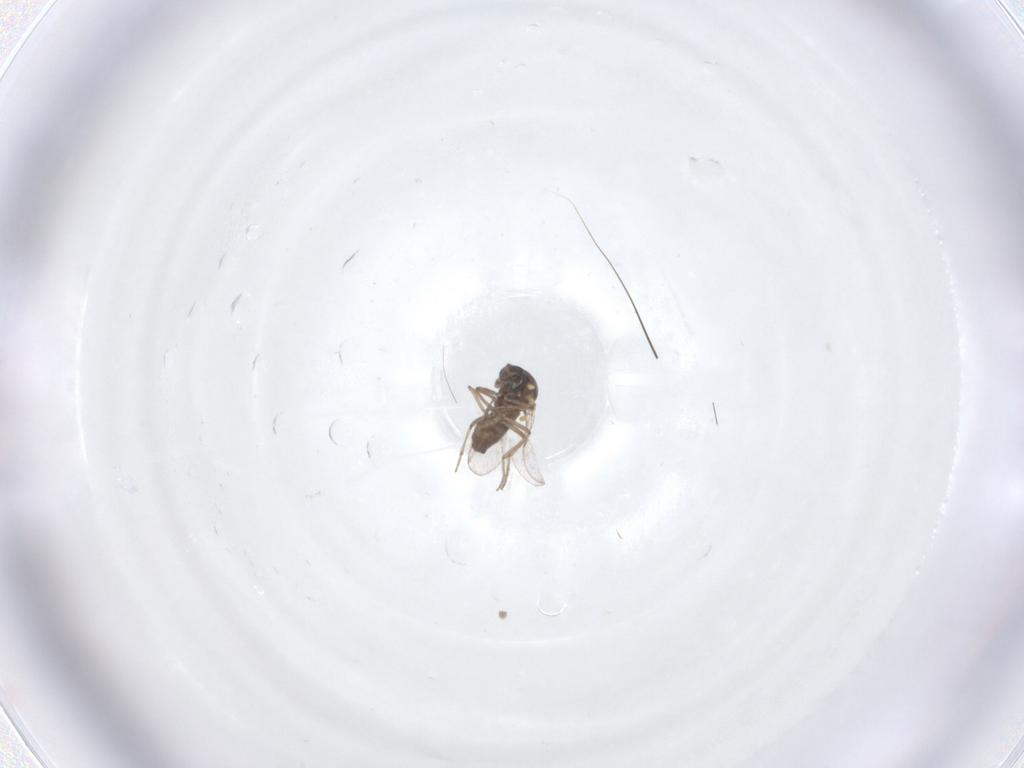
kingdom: Animalia
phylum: Arthropoda
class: Insecta
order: Diptera
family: Ceratopogonidae
